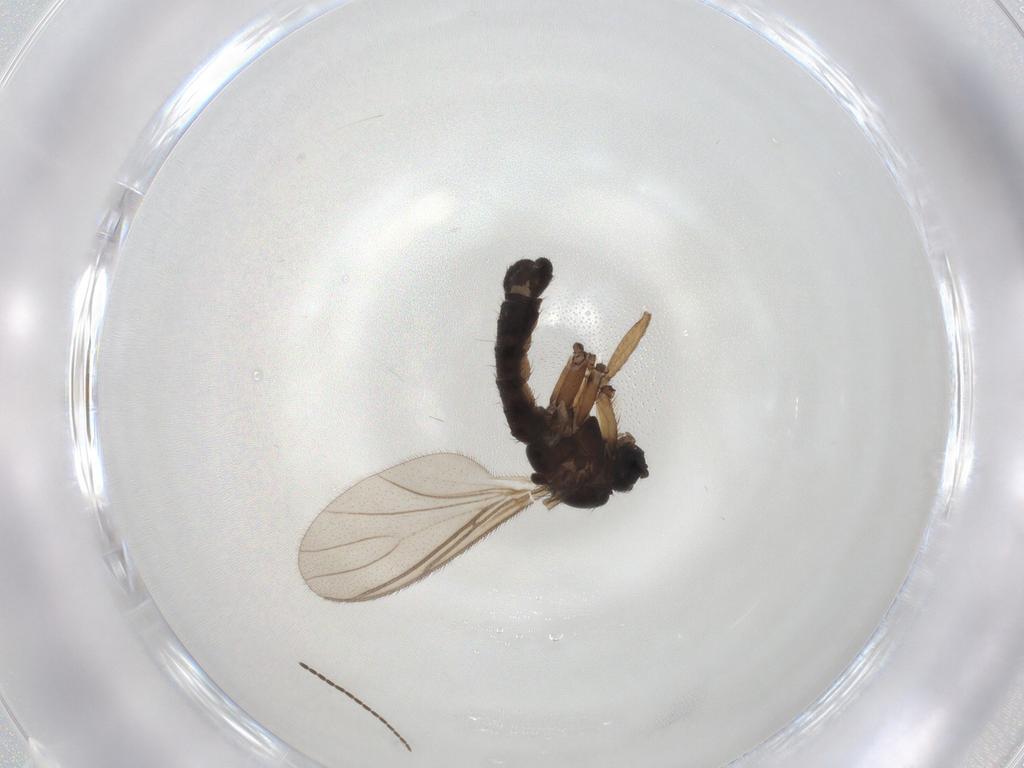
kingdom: Animalia
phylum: Arthropoda
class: Insecta
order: Diptera
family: Sciaridae
